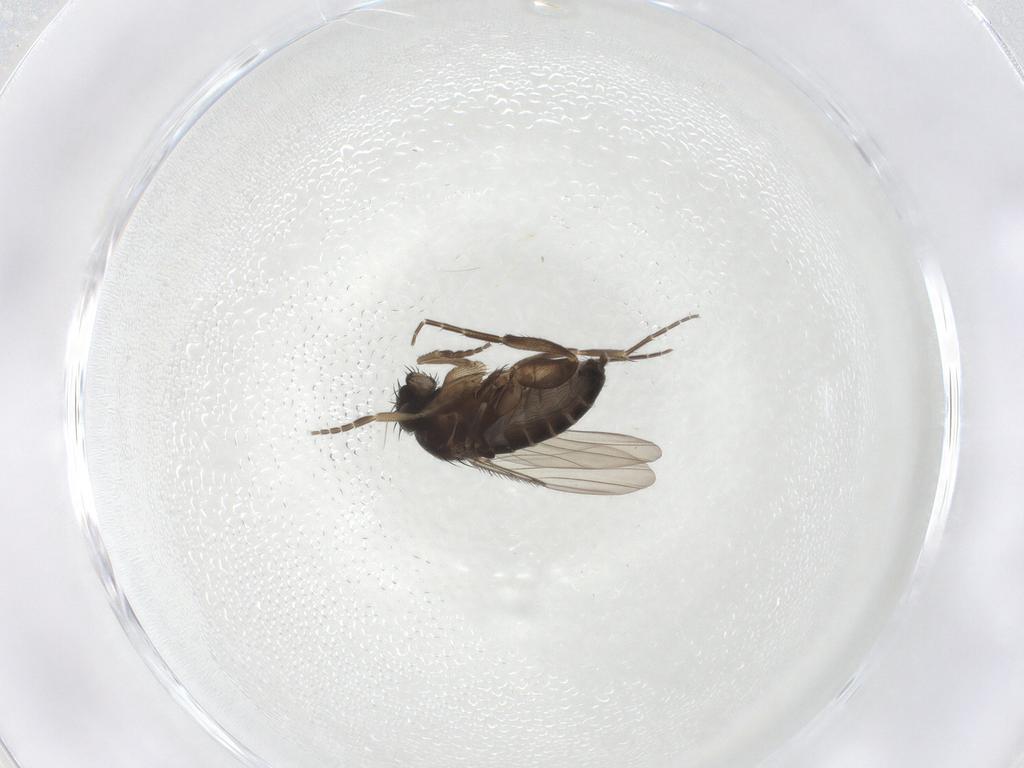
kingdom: Animalia
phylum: Arthropoda
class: Insecta
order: Diptera
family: Phoridae
